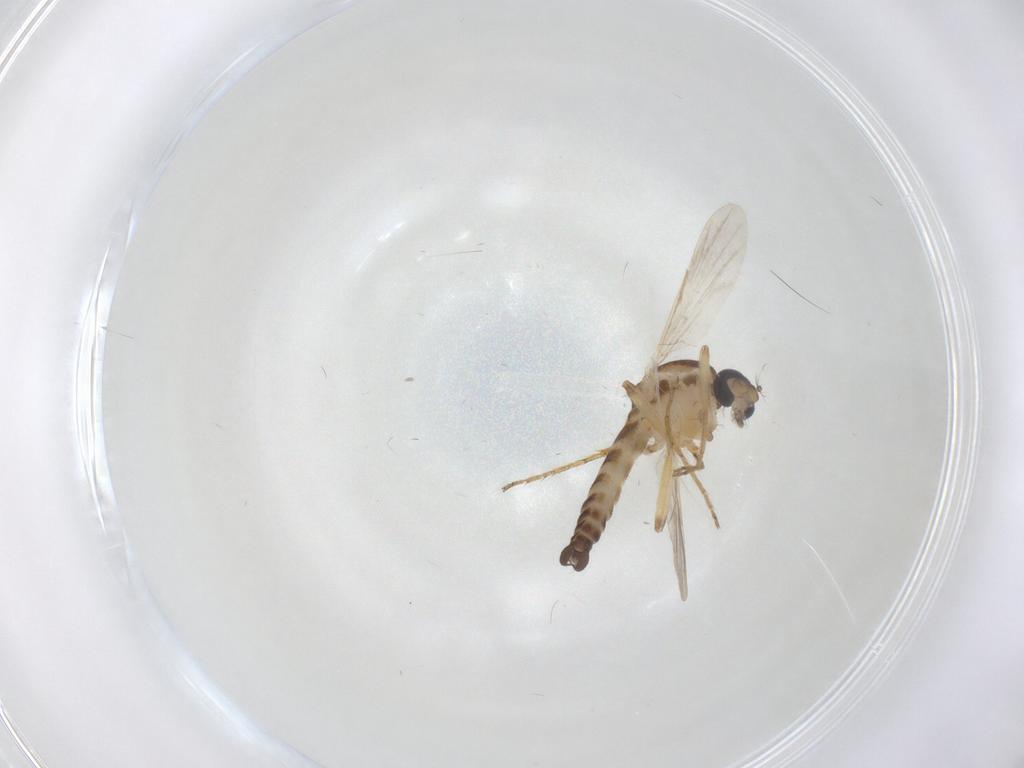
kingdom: Animalia
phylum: Arthropoda
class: Insecta
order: Diptera
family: Ceratopogonidae
